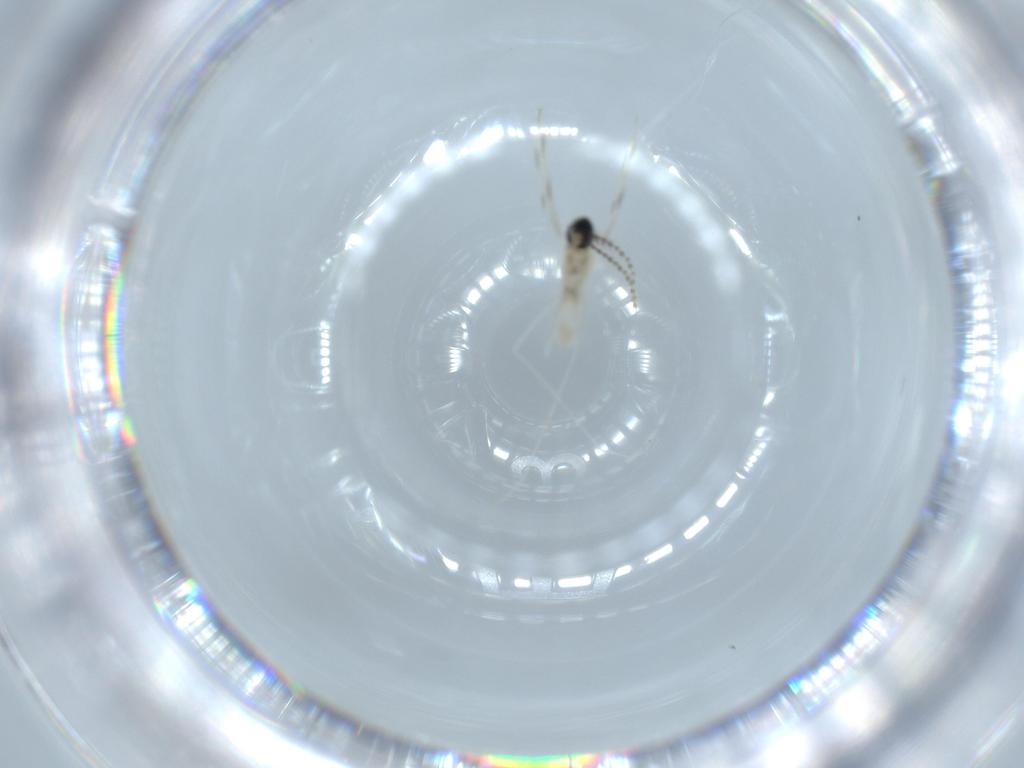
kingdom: Animalia
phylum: Arthropoda
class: Insecta
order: Diptera
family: Cecidomyiidae
